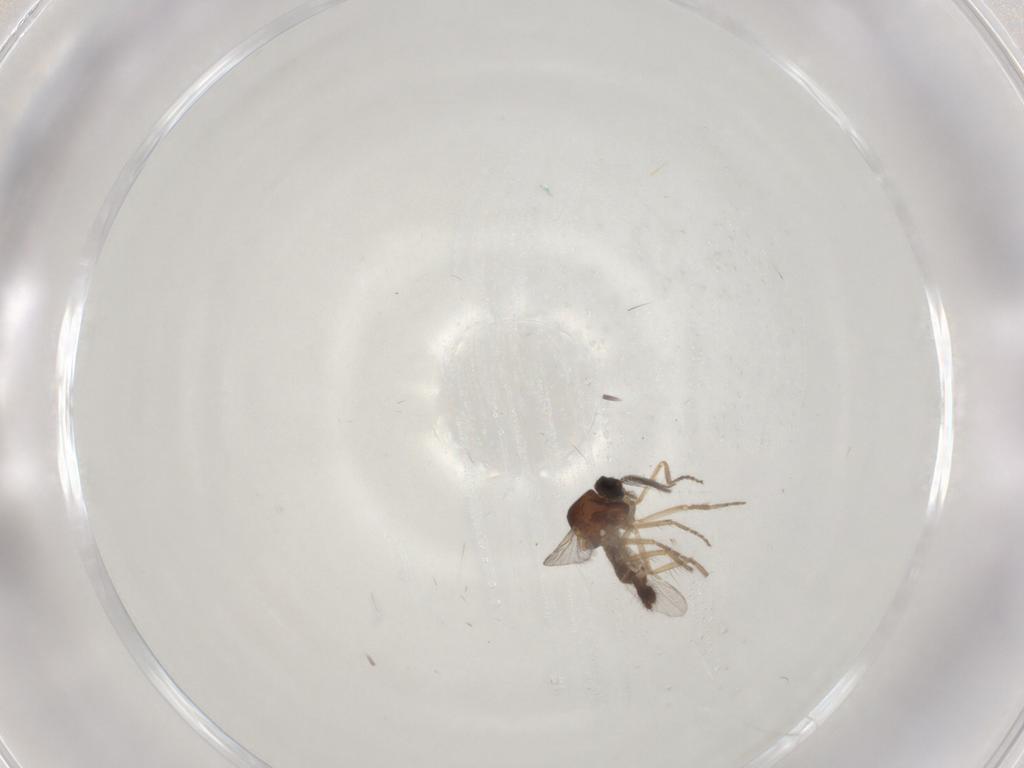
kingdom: Animalia
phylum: Arthropoda
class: Insecta
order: Diptera
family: Ceratopogonidae
